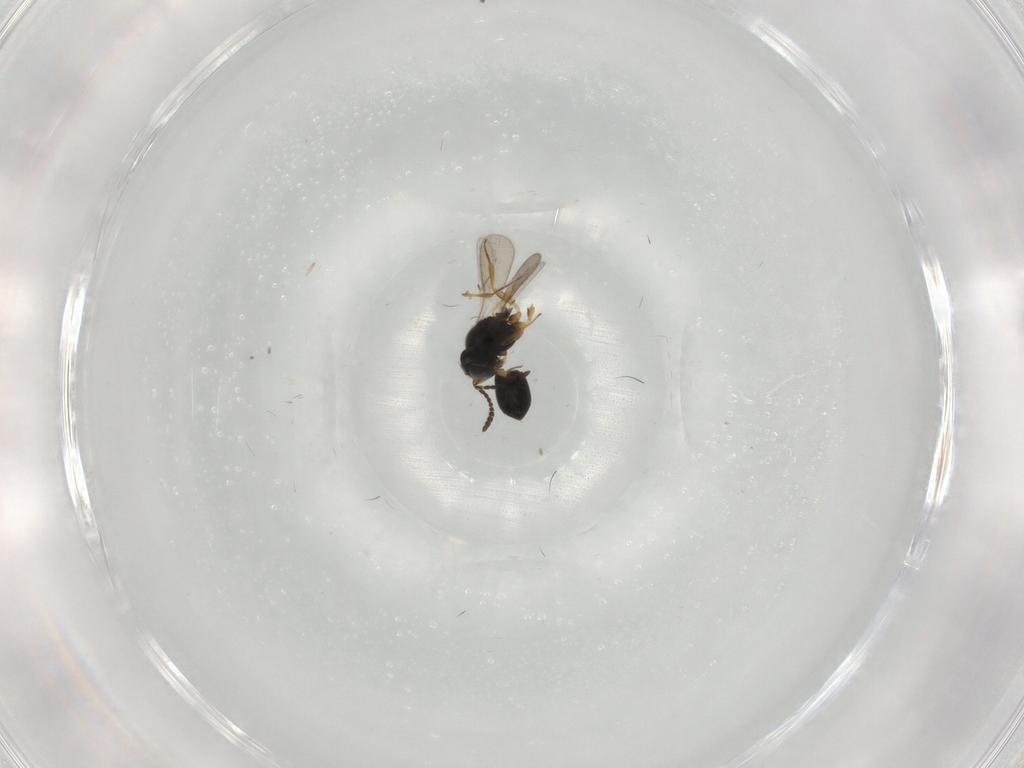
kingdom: Animalia
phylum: Arthropoda
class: Insecta
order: Hymenoptera
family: Scelionidae
